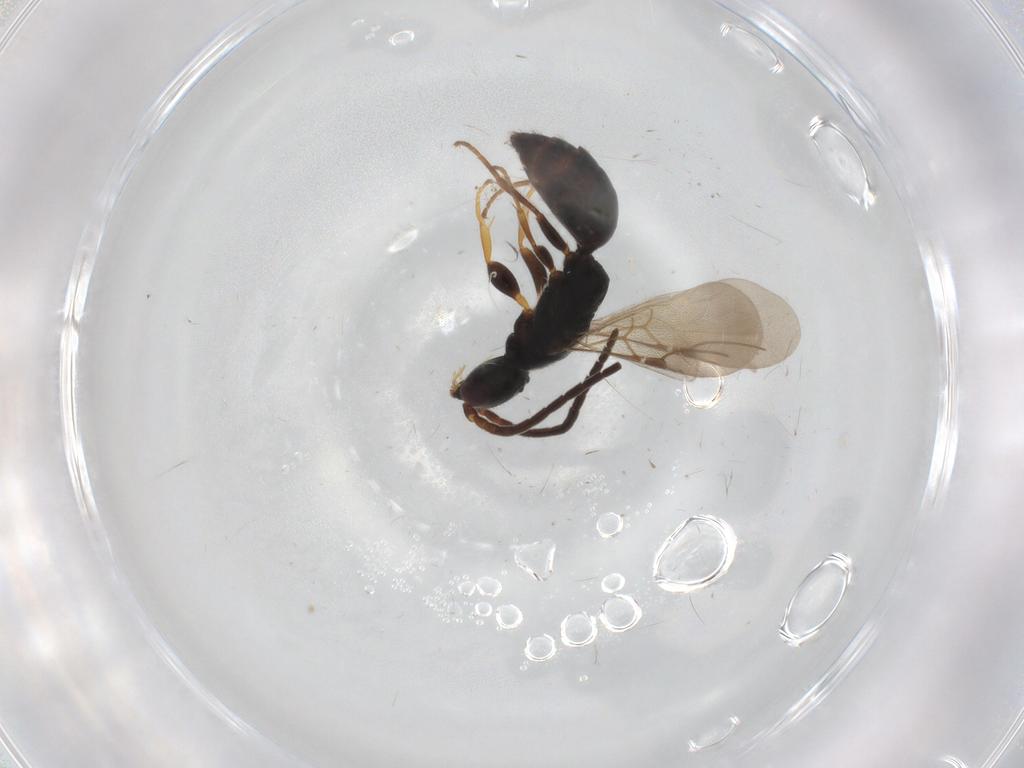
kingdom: Animalia
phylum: Arthropoda
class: Insecta
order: Hymenoptera
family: Bethylidae
